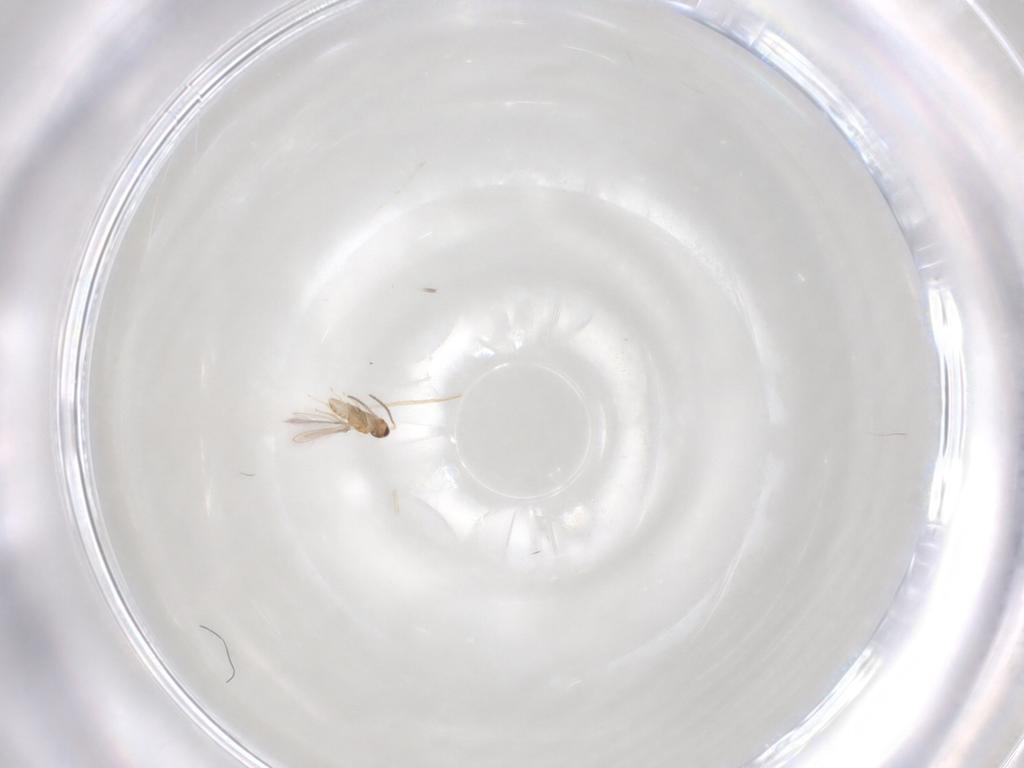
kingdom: Animalia
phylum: Arthropoda
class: Insecta
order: Hymenoptera
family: Mymaridae
